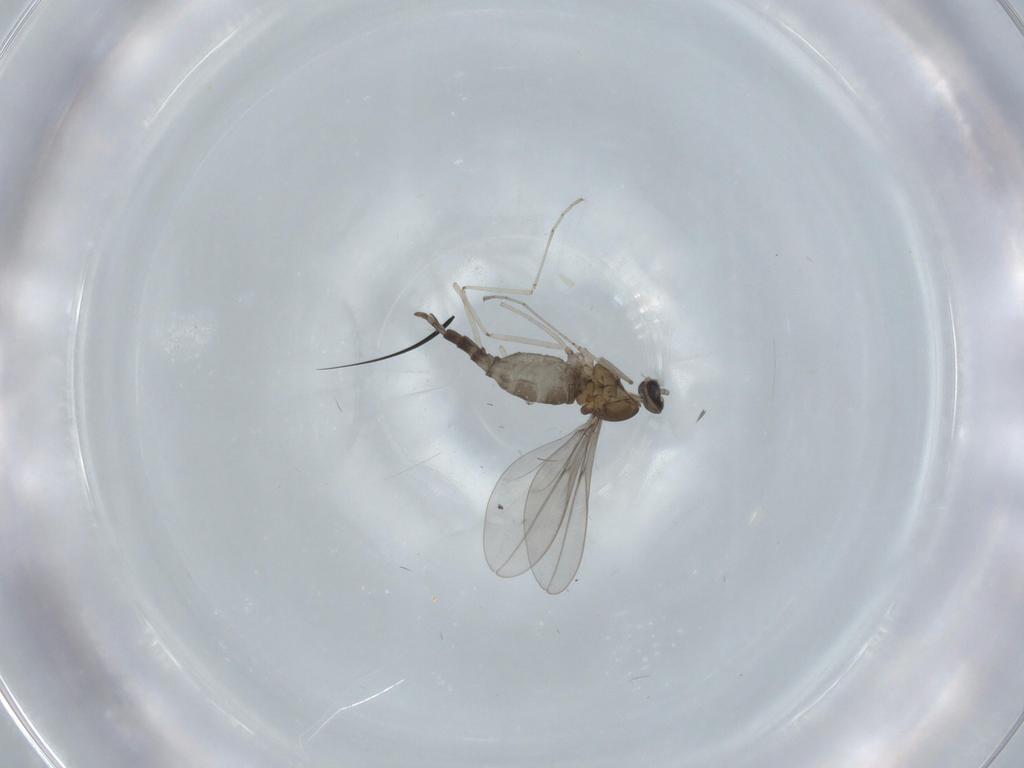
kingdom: Animalia
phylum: Arthropoda
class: Insecta
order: Diptera
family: Cecidomyiidae
